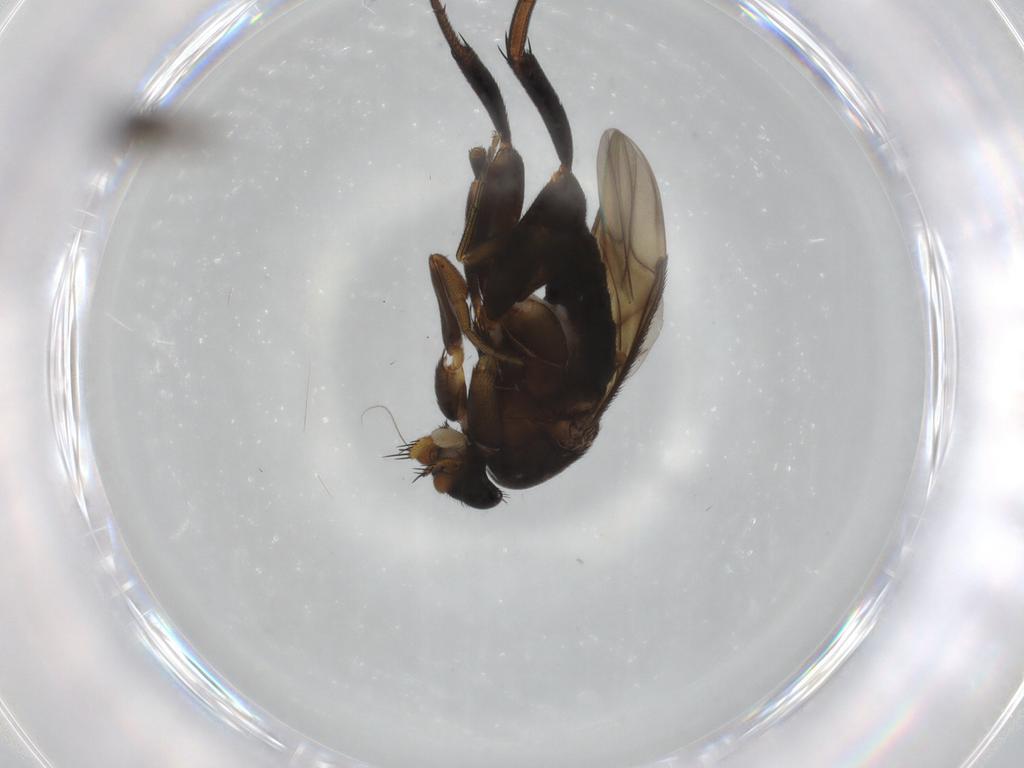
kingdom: Animalia
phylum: Arthropoda
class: Insecta
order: Diptera
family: Phoridae
